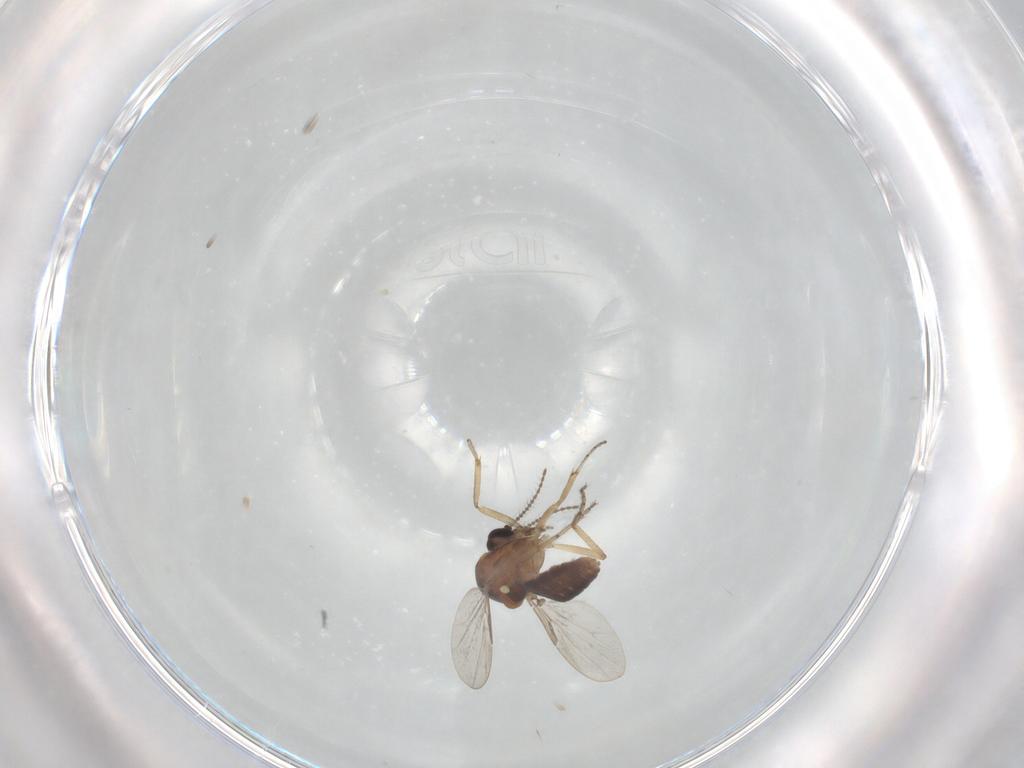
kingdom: Animalia
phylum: Arthropoda
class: Insecta
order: Diptera
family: Ceratopogonidae
